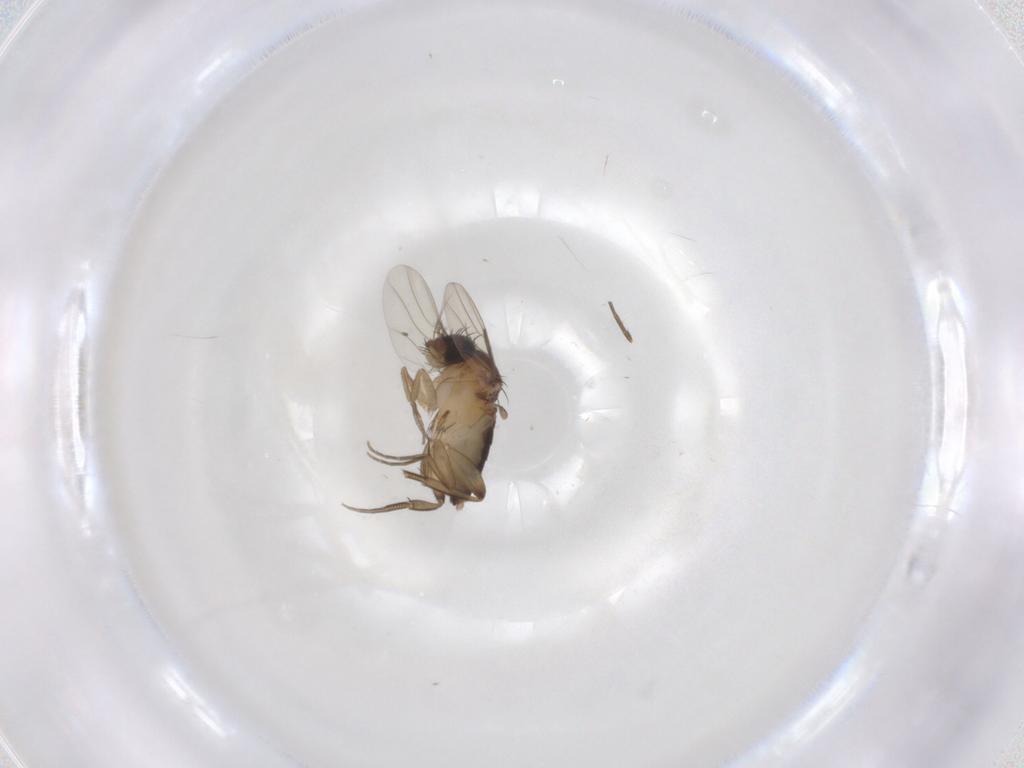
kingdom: Animalia
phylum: Arthropoda
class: Insecta
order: Diptera
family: Phoridae
